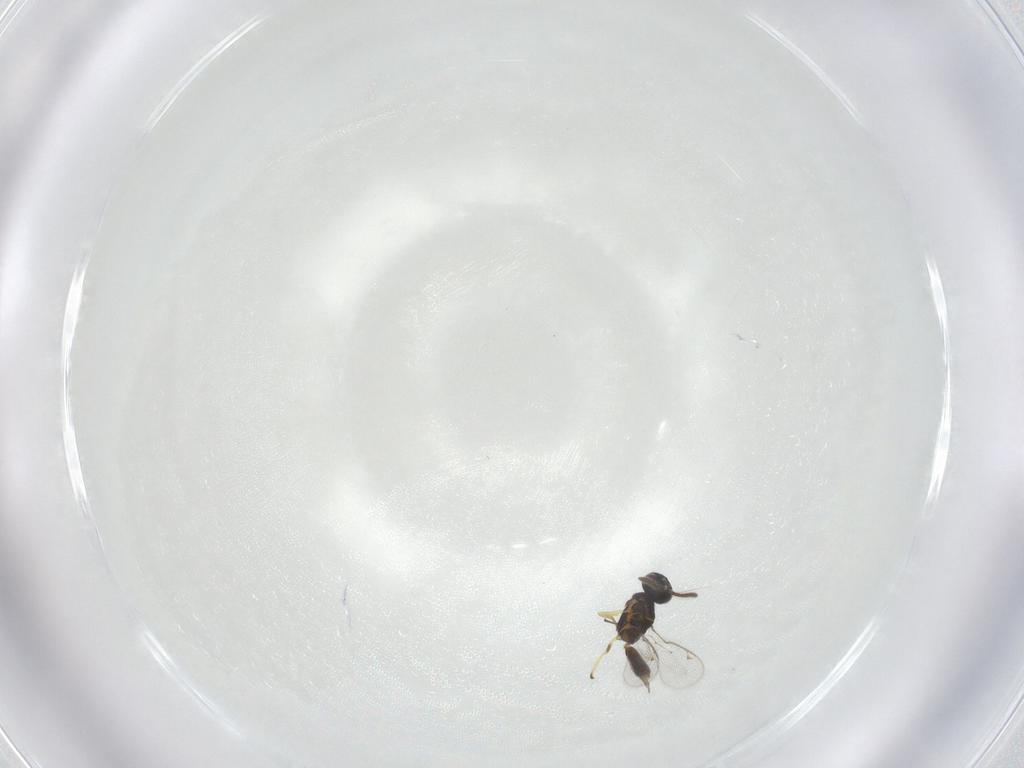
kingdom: Animalia
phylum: Arthropoda
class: Insecta
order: Hymenoptera
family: Eupelmidae
